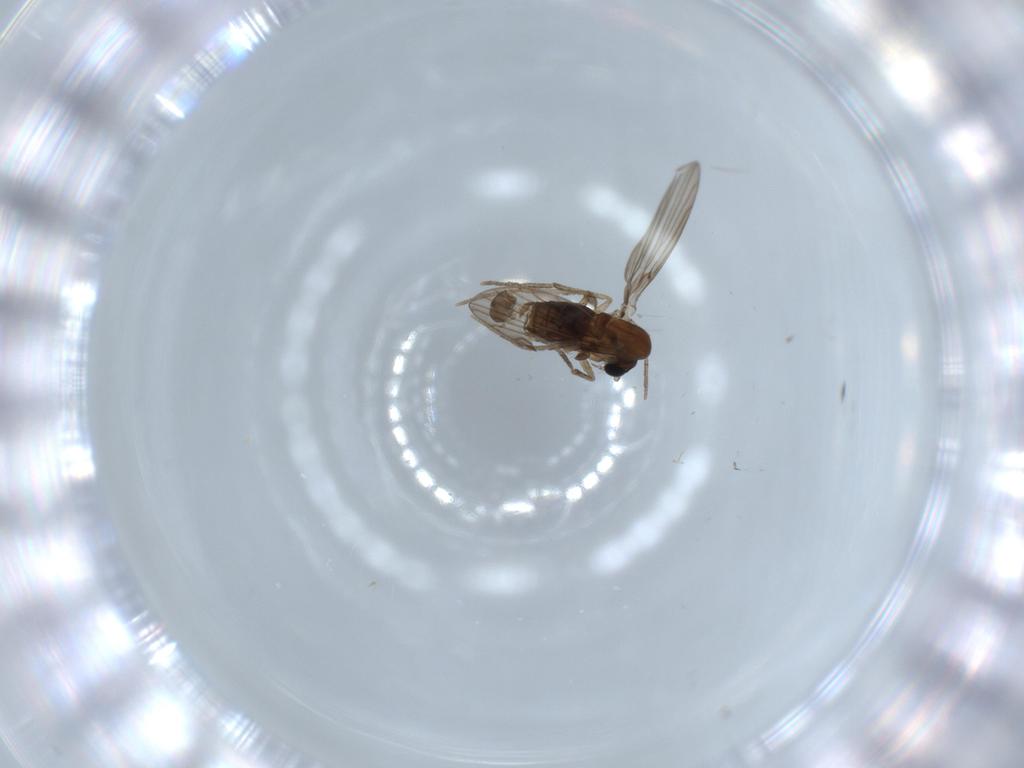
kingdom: Animalia
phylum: Arthropoda
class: Insecta
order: Diptera
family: Psychodidae
